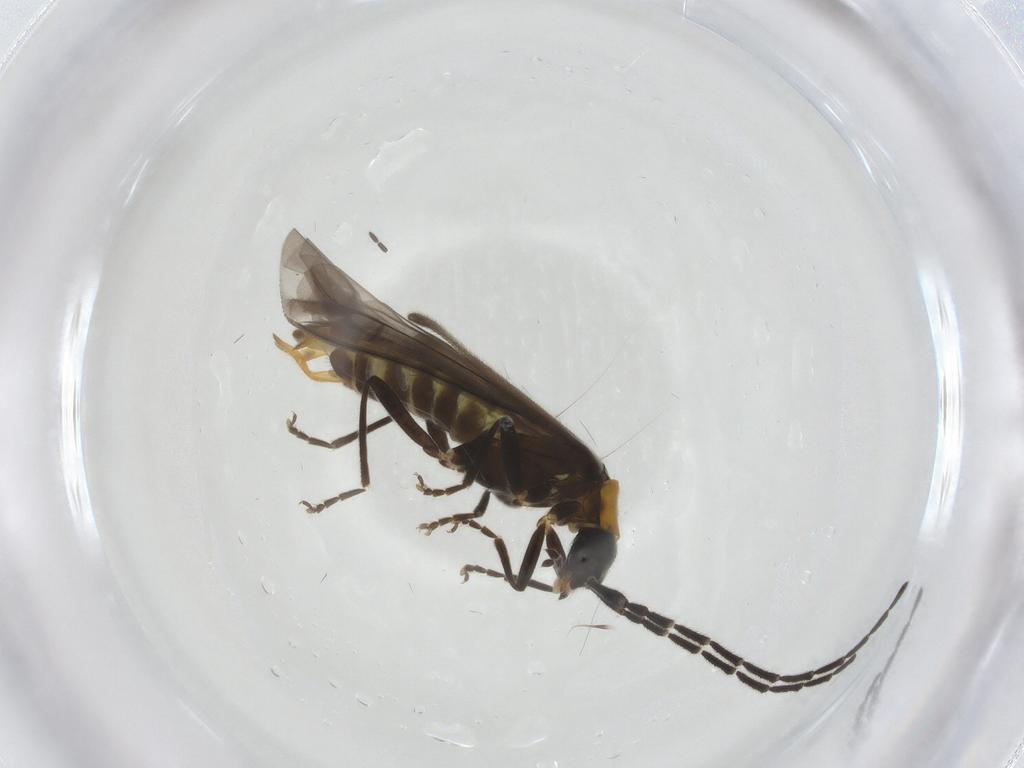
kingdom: Animalia
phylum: Arthropoda
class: Insecta
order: Coleoptera
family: Cantharidae
